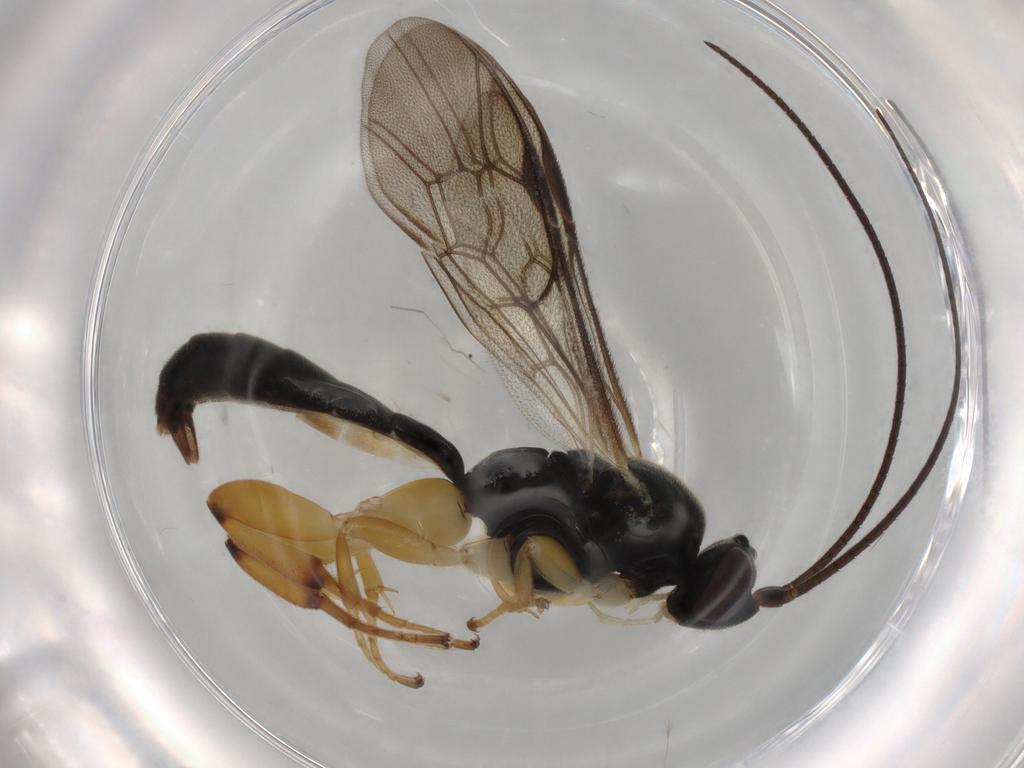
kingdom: Animalia
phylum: Arthropoda
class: Insecta
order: Hymenoptera
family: Ichneumonidae
